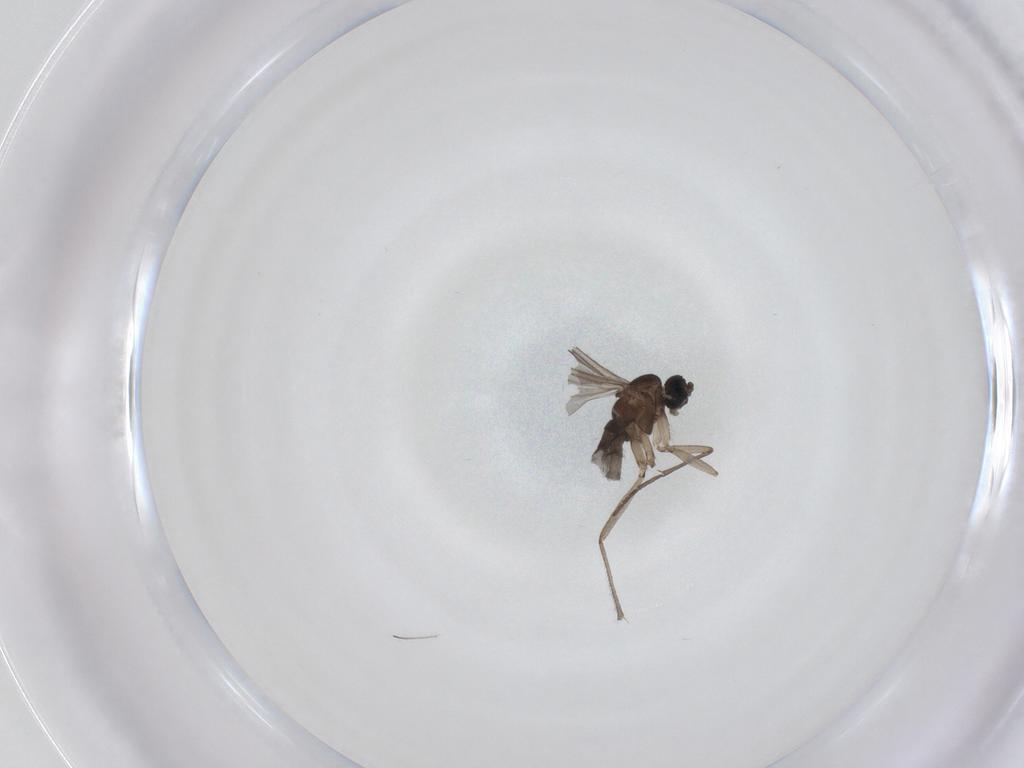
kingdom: Animalia
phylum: Arthropoda
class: Insecta
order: Diptera
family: Sciaridae
